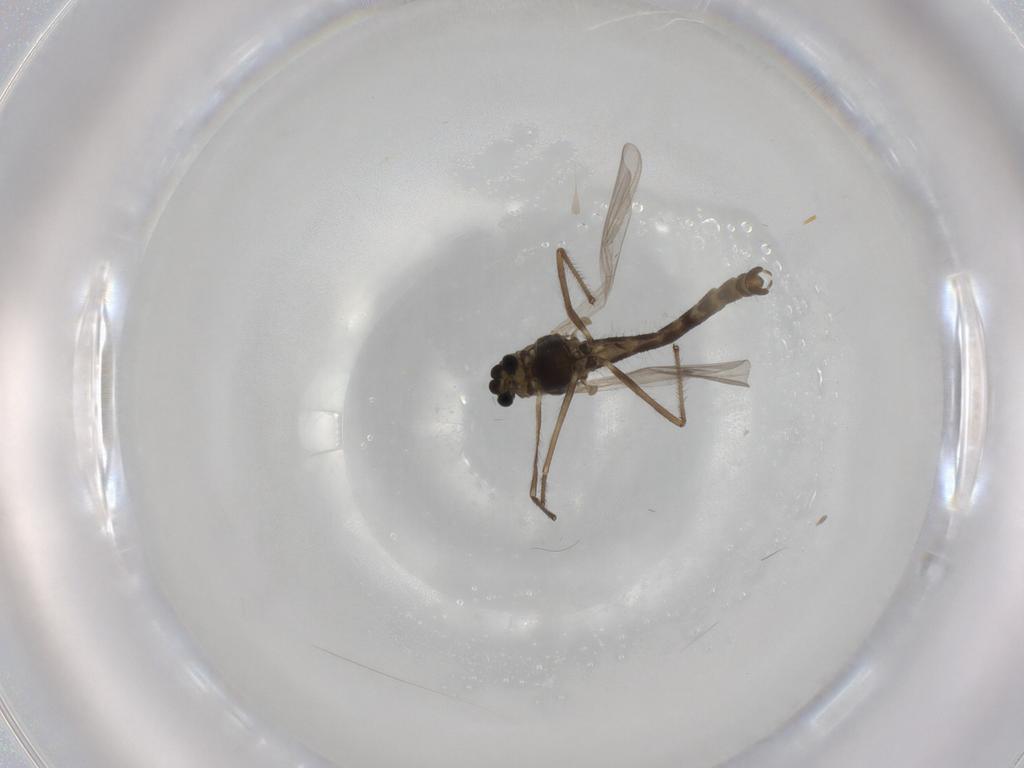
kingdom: Animalia
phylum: Arthropoda
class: Insecta
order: Diptera
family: Chironomidae
